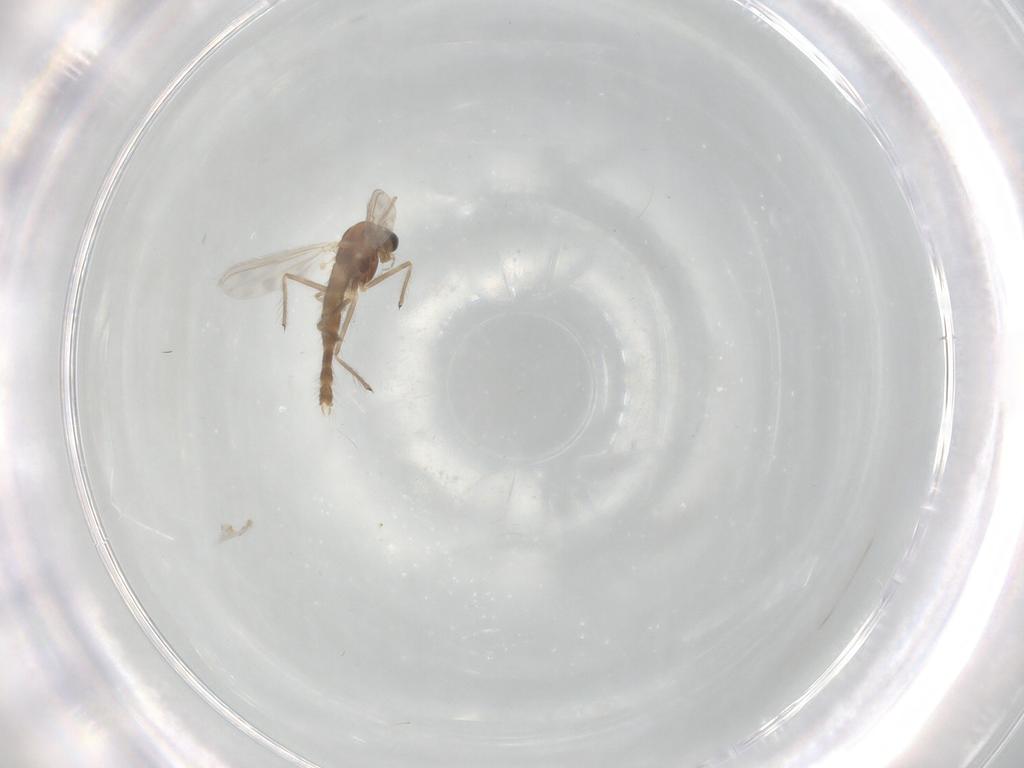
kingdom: Animalia
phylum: Arthropoda
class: Insecta
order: Diptera
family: Chironomidae
